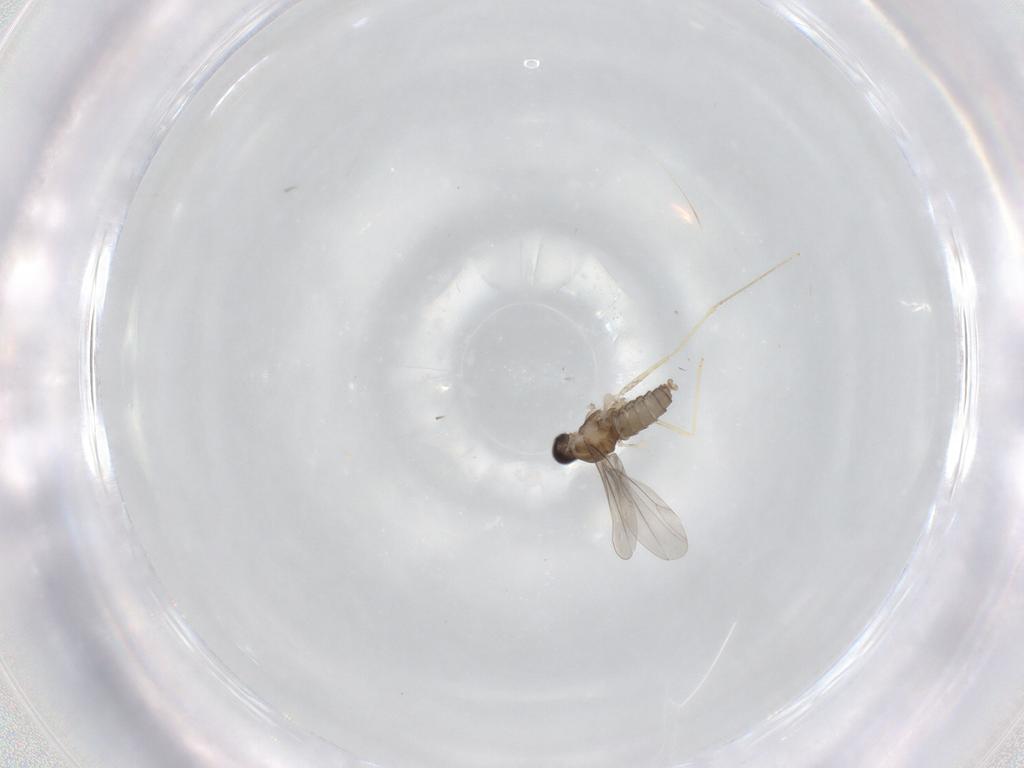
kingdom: Animalia
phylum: Arthropoda
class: Insecta
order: Diptera
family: Cecidomyiidae
